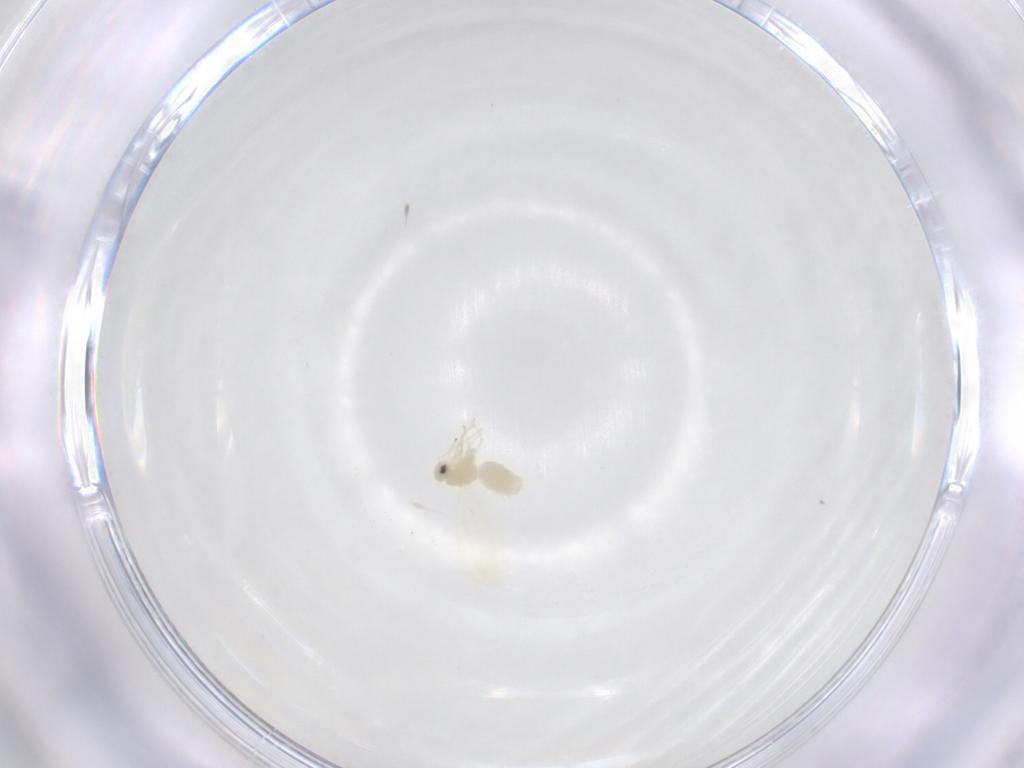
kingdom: Animalia
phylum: Arthropoda
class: Insecta
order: Hemiptera
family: Aleyrodidae
